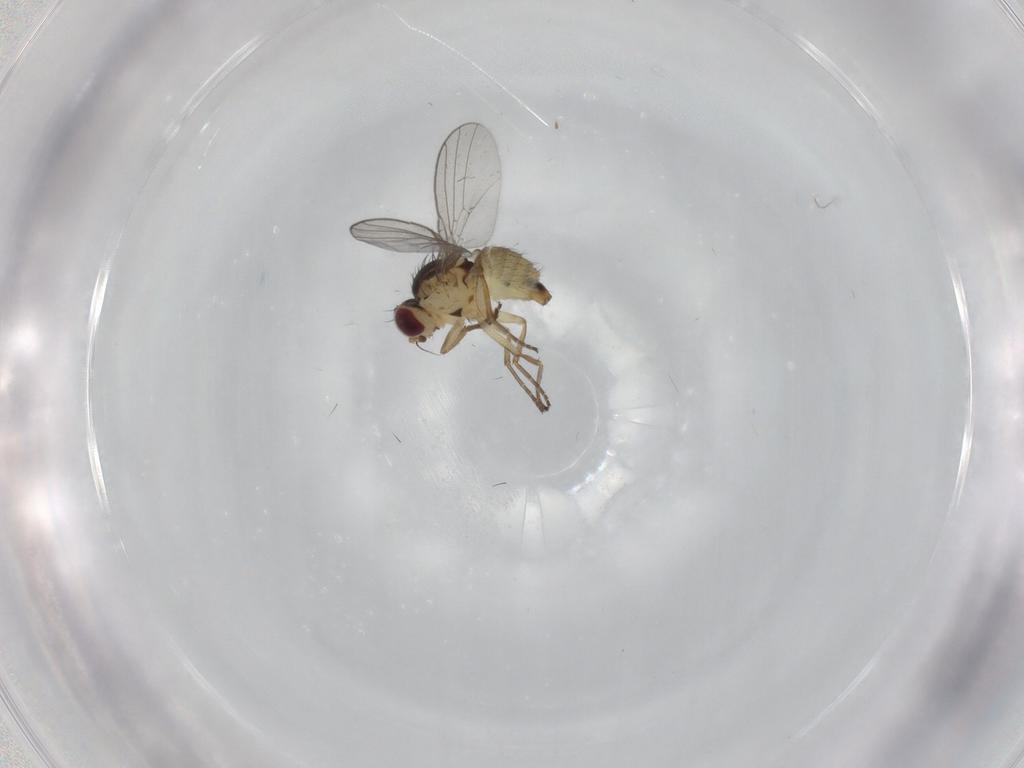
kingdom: Animalia
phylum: Arthropoda
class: Insecta
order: Diptera
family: Agromyzidae
